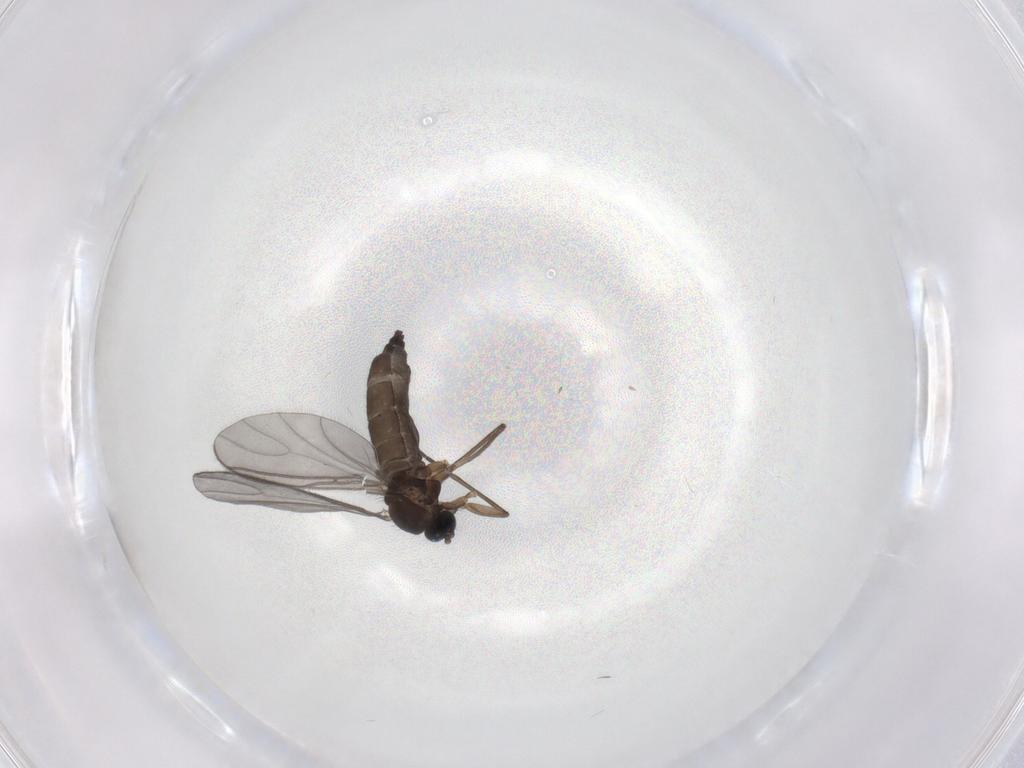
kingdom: Animalia
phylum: Arthropoda
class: Insecta
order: Diptera
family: Sciaridae
